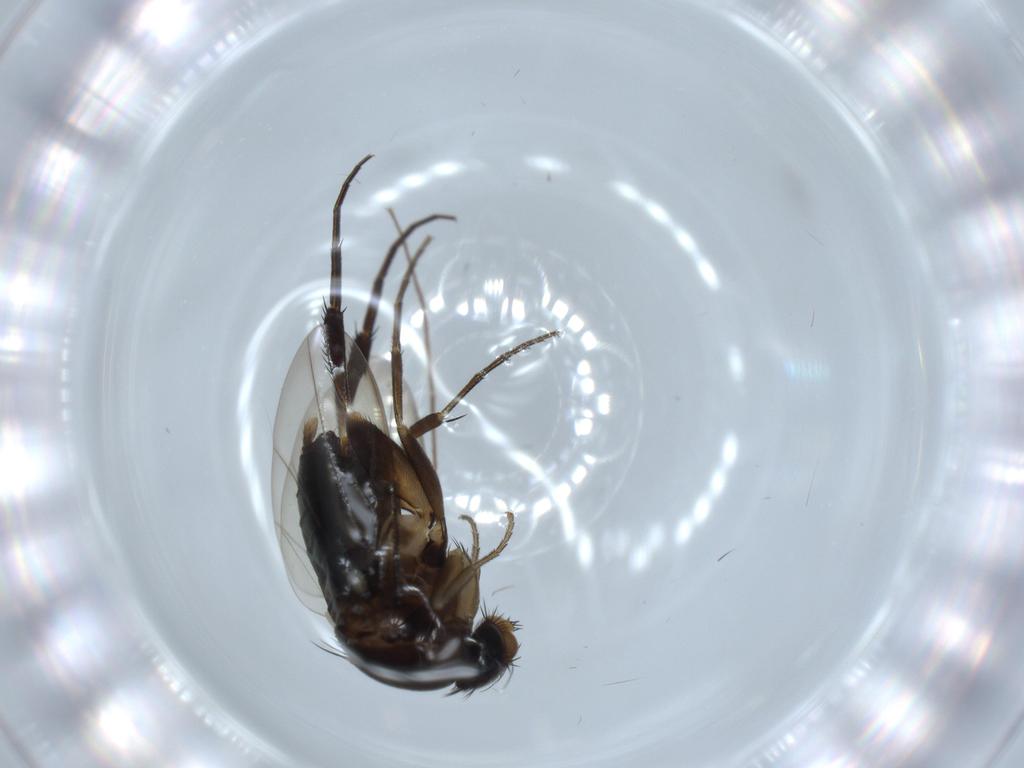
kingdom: Animalia
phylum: Arthropoda
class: Insecta
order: Diptera
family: Phoridae
